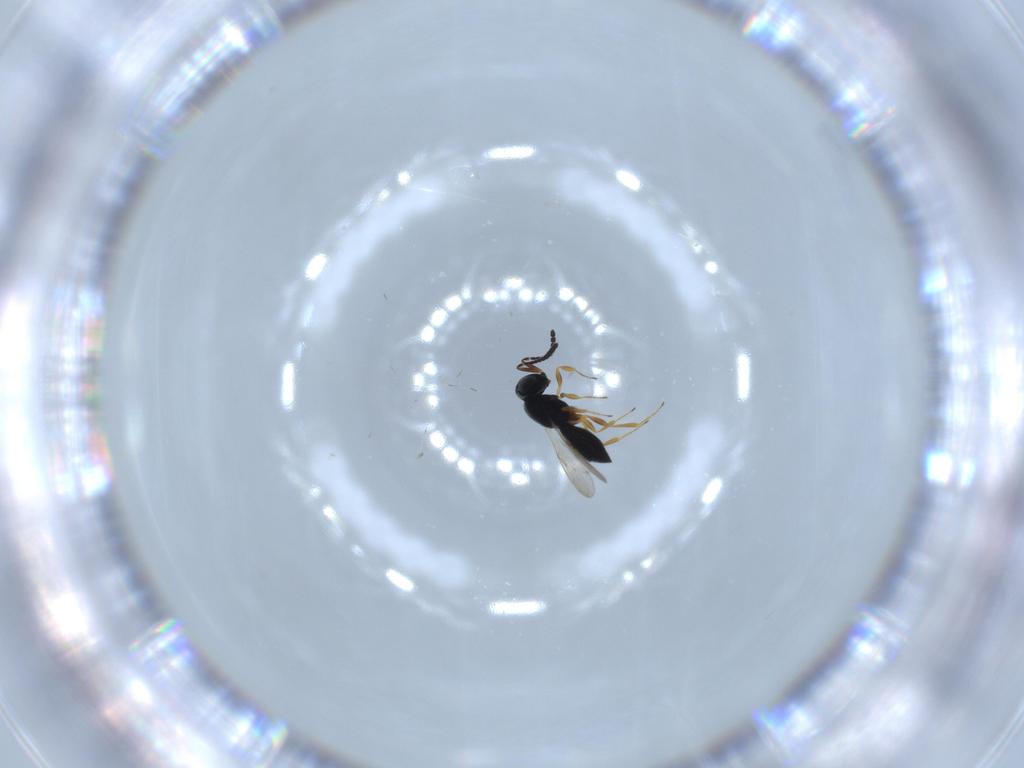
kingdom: Animalia
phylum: Arthropoda
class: Insecta
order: Hymenoptera
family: Scelionidae
